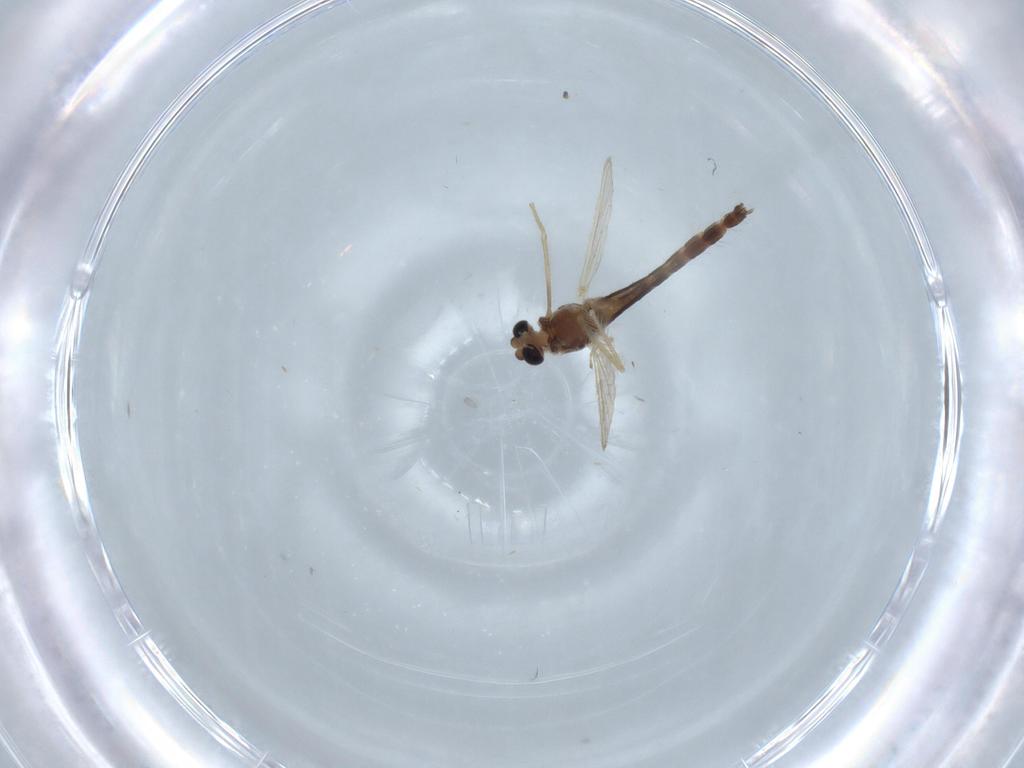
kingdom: Animalia
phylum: Arthropoda
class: Insecta
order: Diptera
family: Chironomidae
